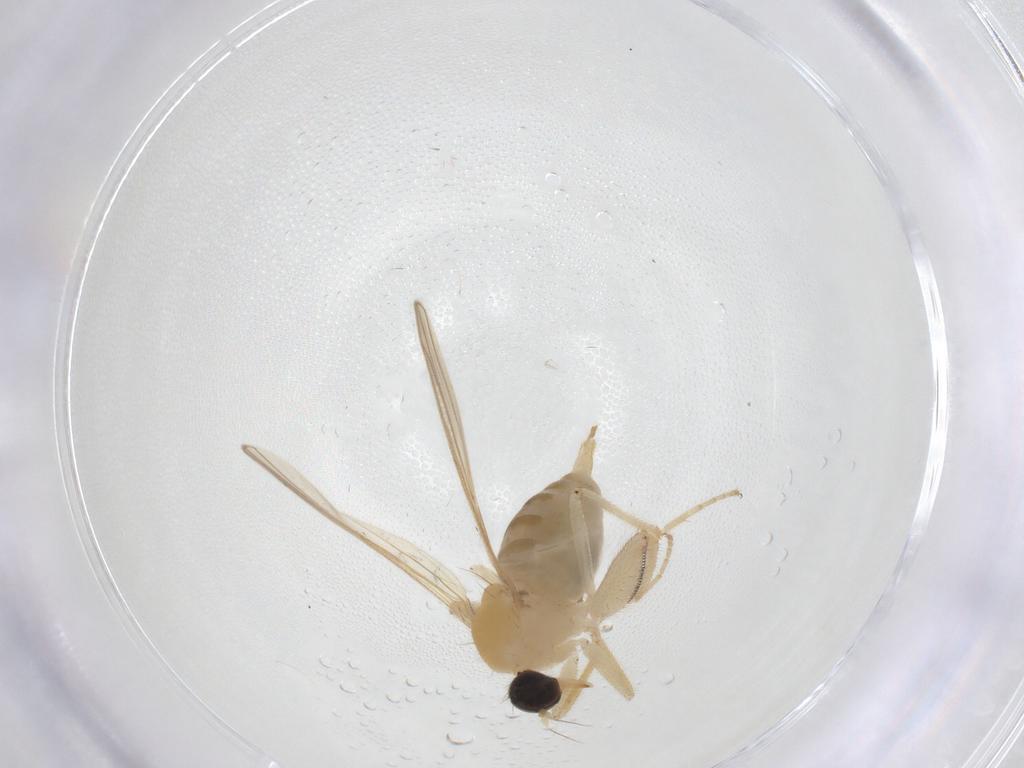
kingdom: Animalia
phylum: Arthropoda
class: Insecta
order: Diptera
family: Hybotidae
